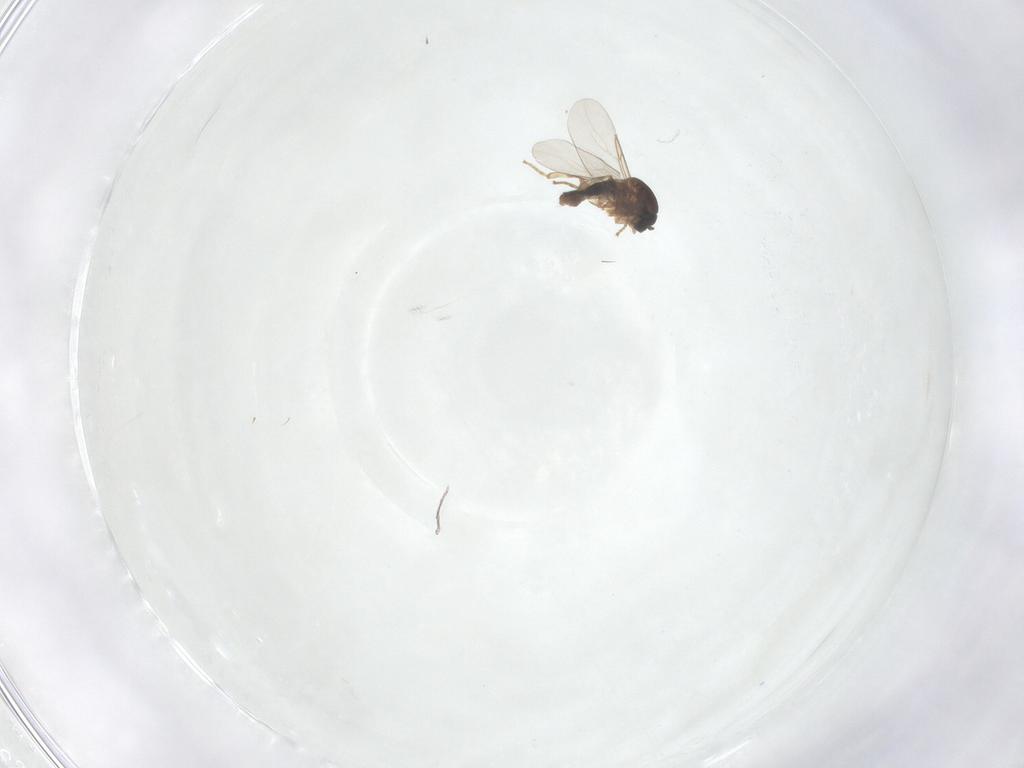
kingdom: Animalia
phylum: Arthropoda
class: Insecta
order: Diptera
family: Scatopsidae
